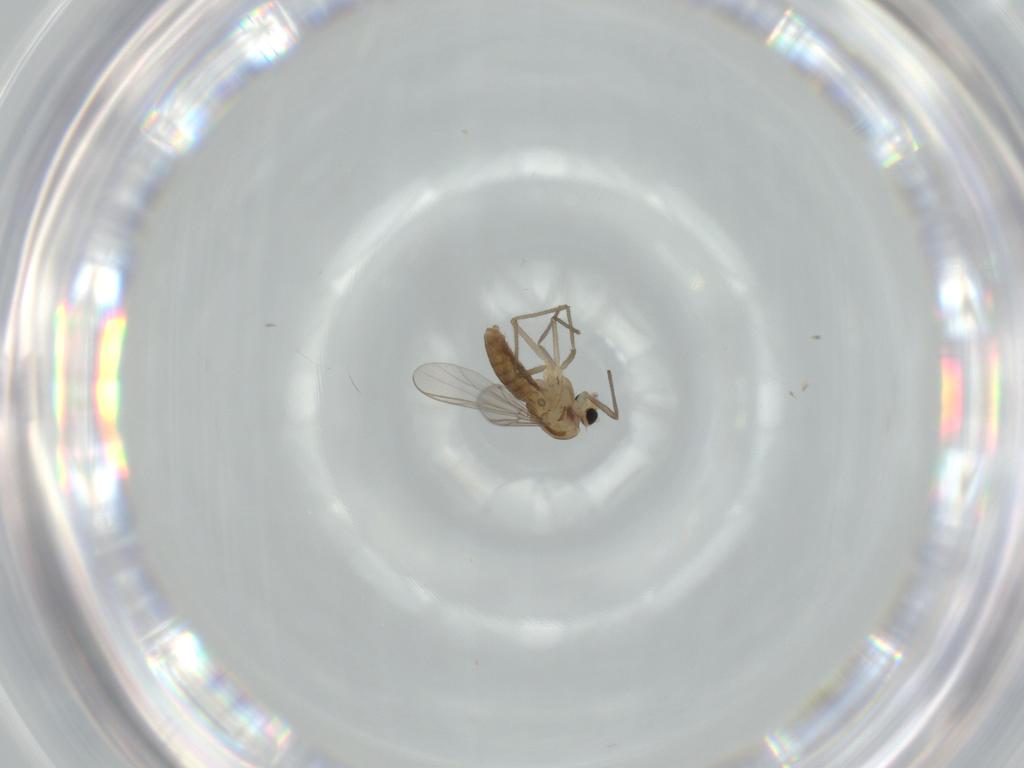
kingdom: Animalia
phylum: Arthropoda
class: Insecta
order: Diptera
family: Chironomidae
